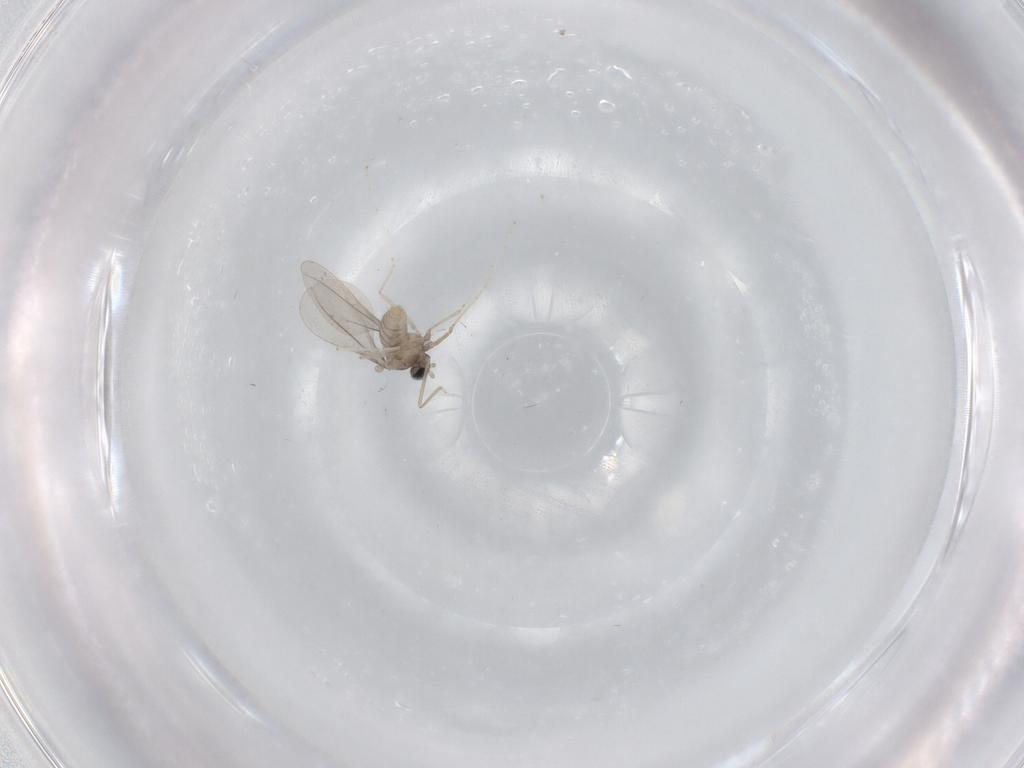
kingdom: Animalia
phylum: Arthropoda
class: Insecta
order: Diptera
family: Cecidomyiidae
